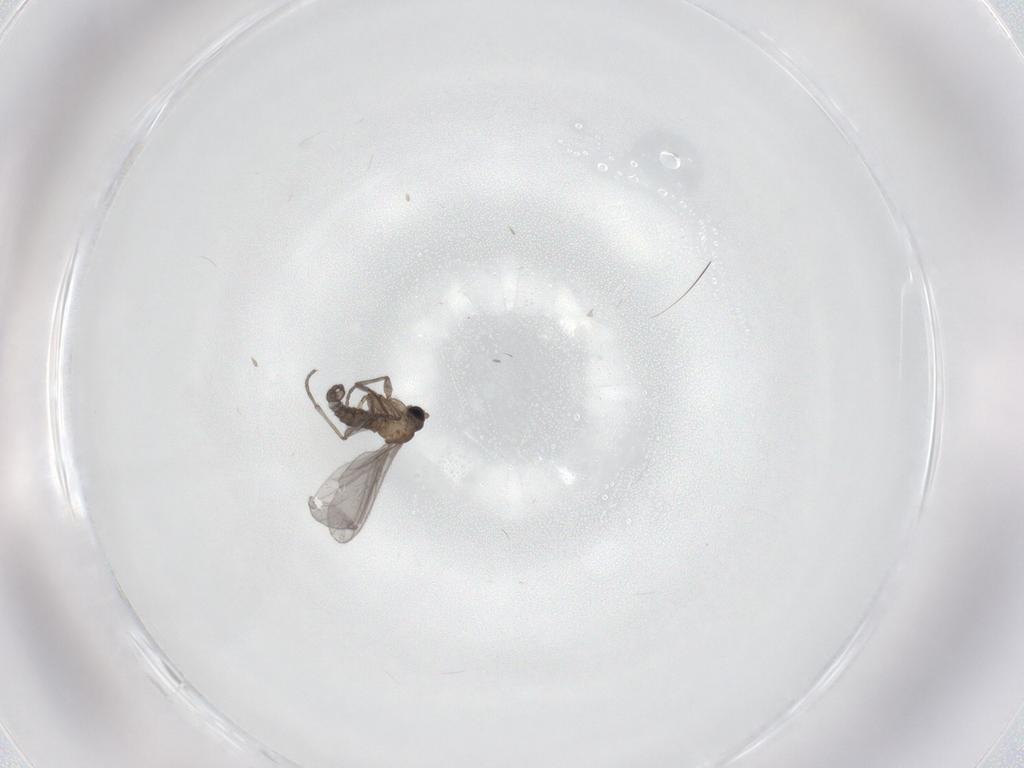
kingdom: Animalia
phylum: Arthropoda
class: Insecta
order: Diptera
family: Sciaridae
